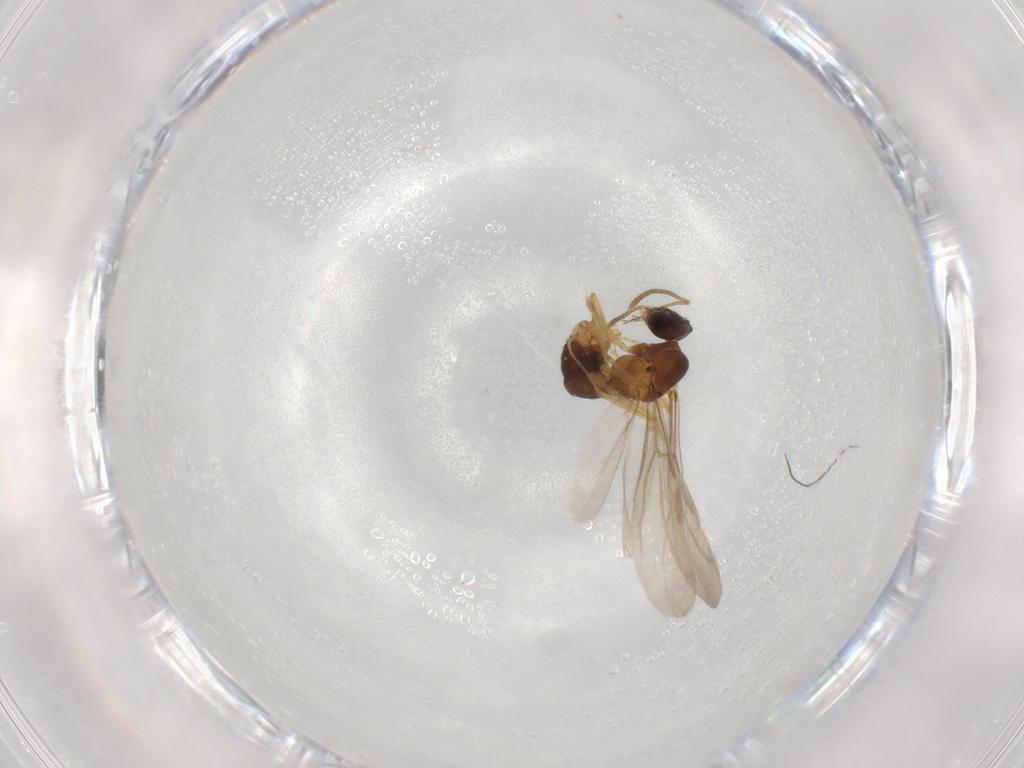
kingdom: Animalia
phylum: Arthropoda
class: Insecta
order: Hymenoptera
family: Formicidae
